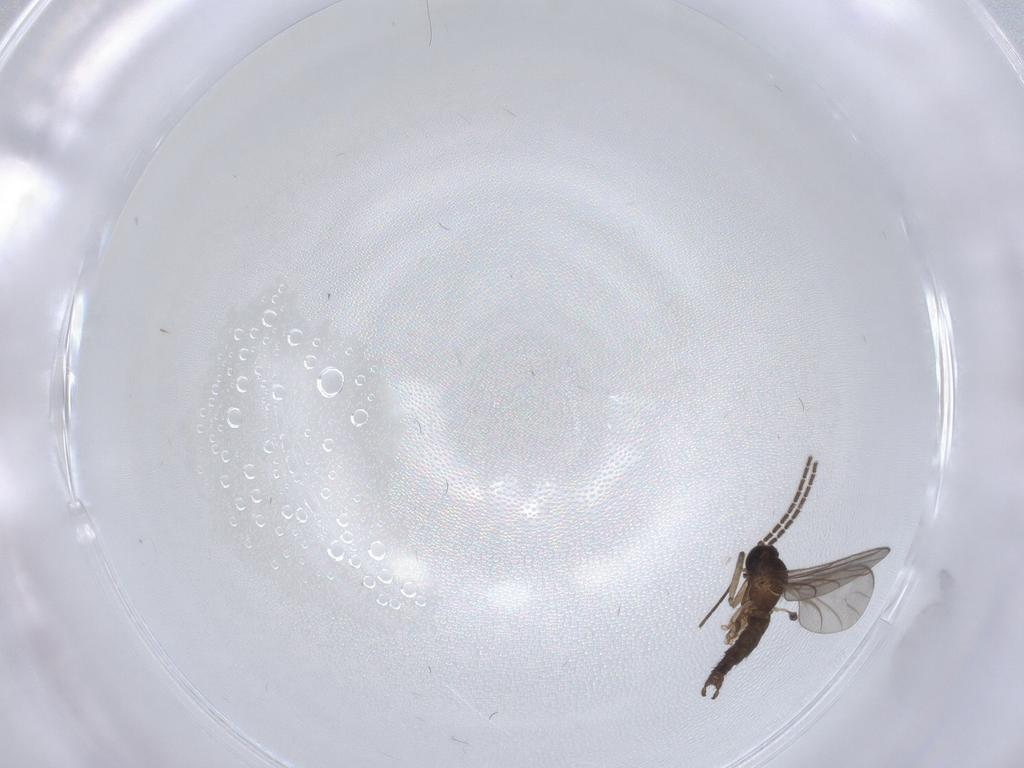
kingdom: Animalia
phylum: Arthropoda
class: Insecta
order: Diptera
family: Sciaridae
